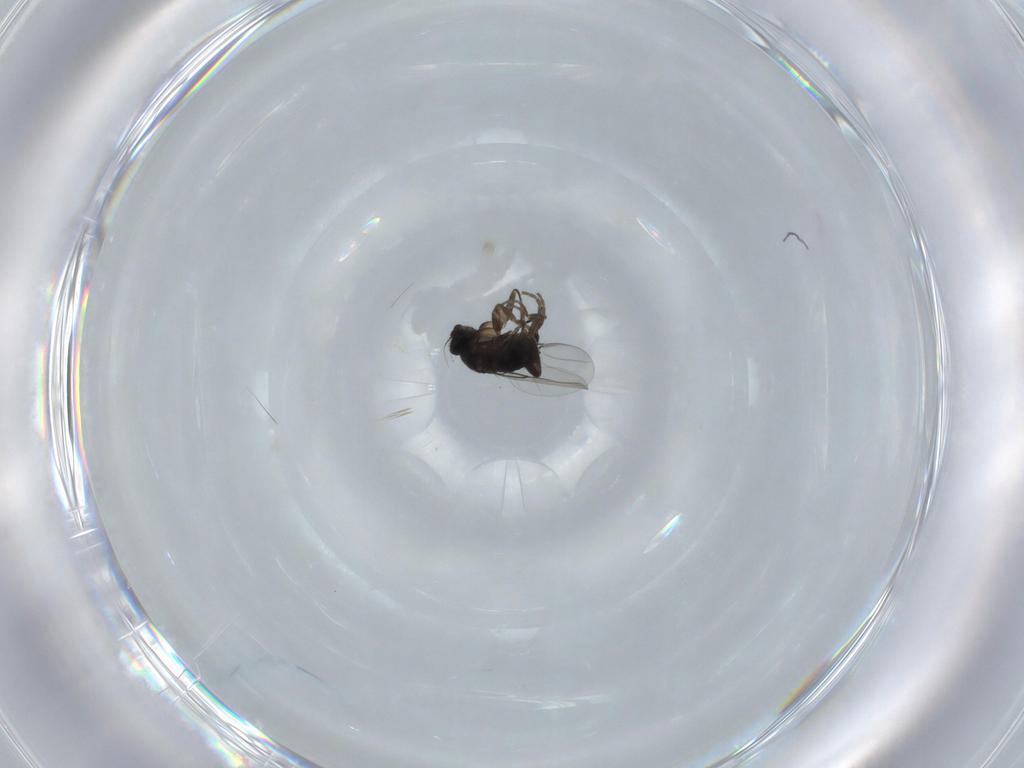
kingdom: Animalia
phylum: Arthropoda
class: Insecta
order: Diptera
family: Phoridae
